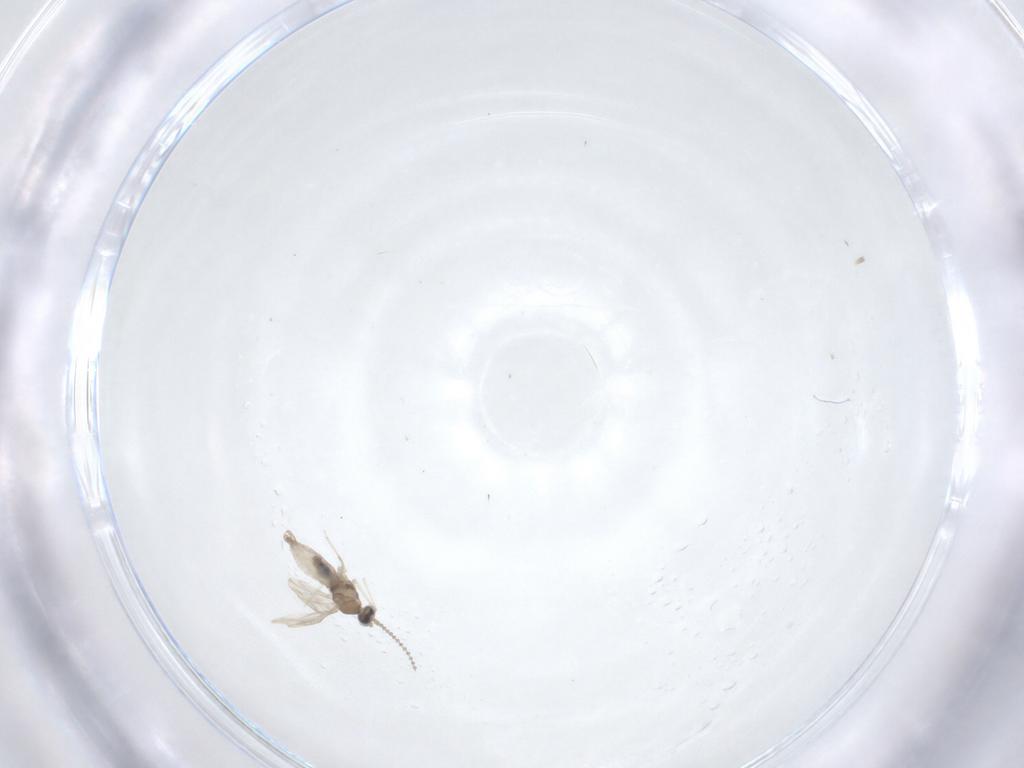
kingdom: Animalia
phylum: Arthropoda
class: Insecta
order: Diptera
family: Cecidomyiidae
